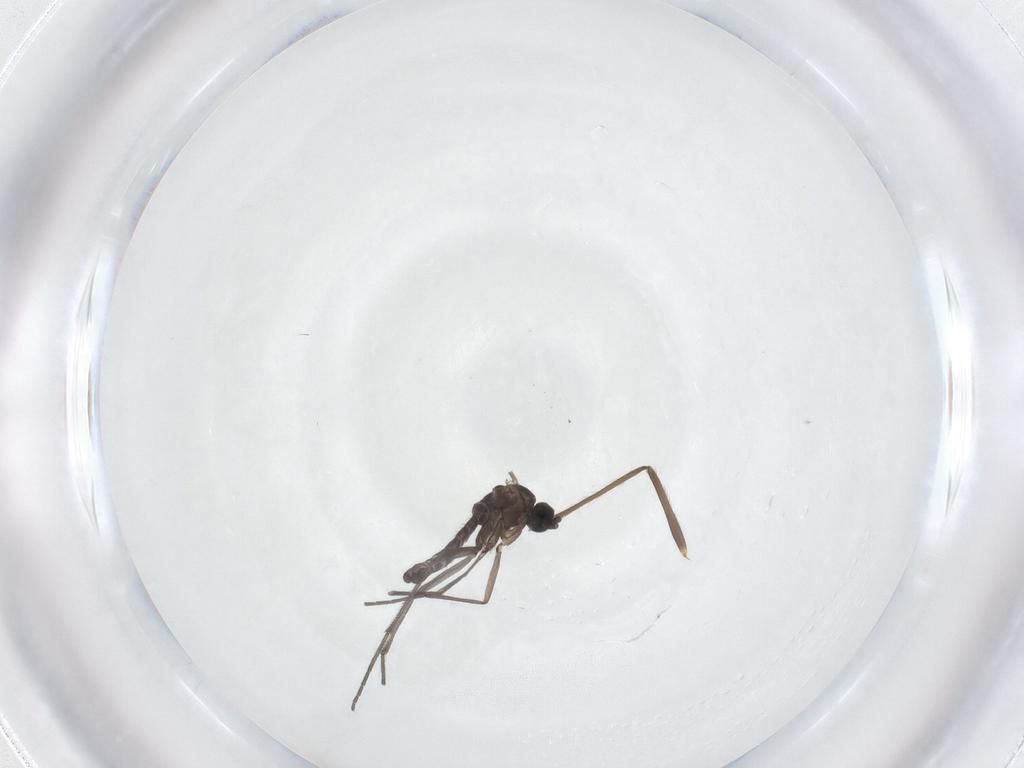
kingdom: Animalia
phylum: Arthropoda
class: Insecta
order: Diptera
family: Chironomidae
